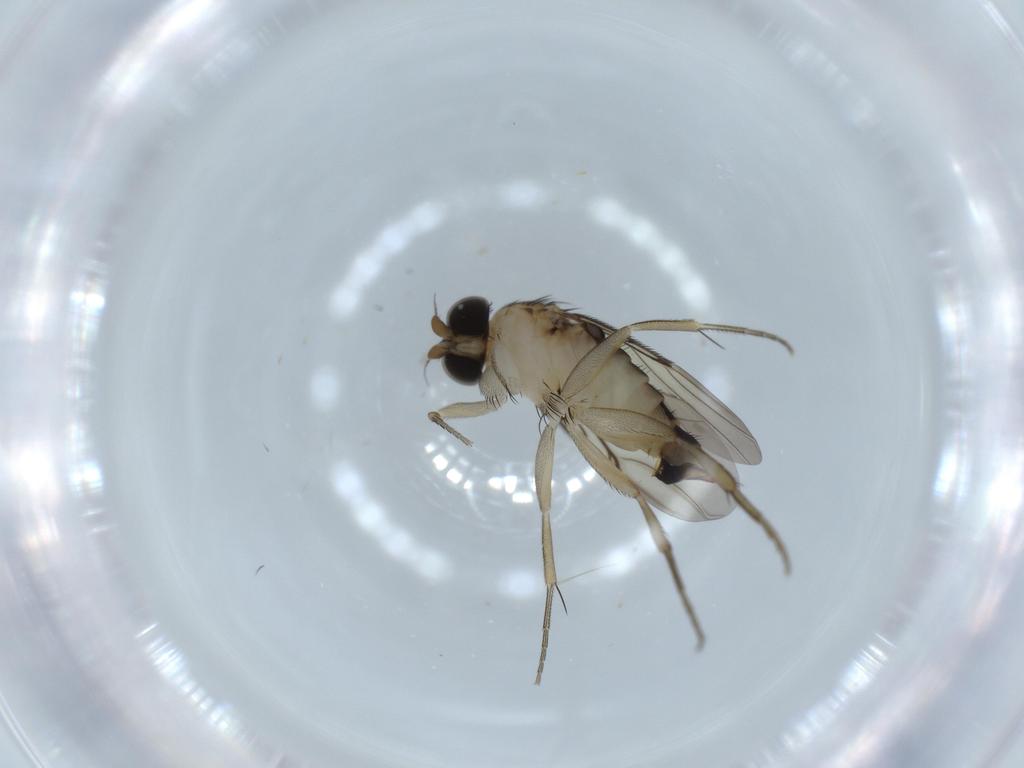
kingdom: Animalia
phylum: Arthropoda
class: Insecta
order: Diptera
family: Phoridae
